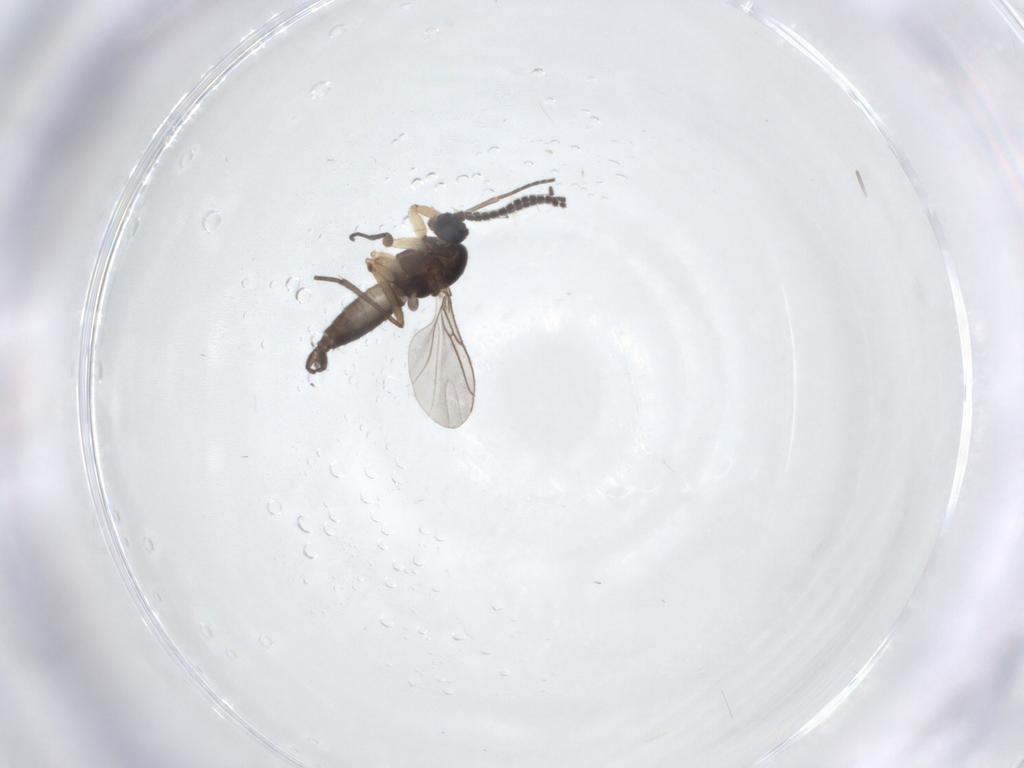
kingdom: Animalia
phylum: Arthropoda
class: Insecta
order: Diptera
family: Sciaridae
